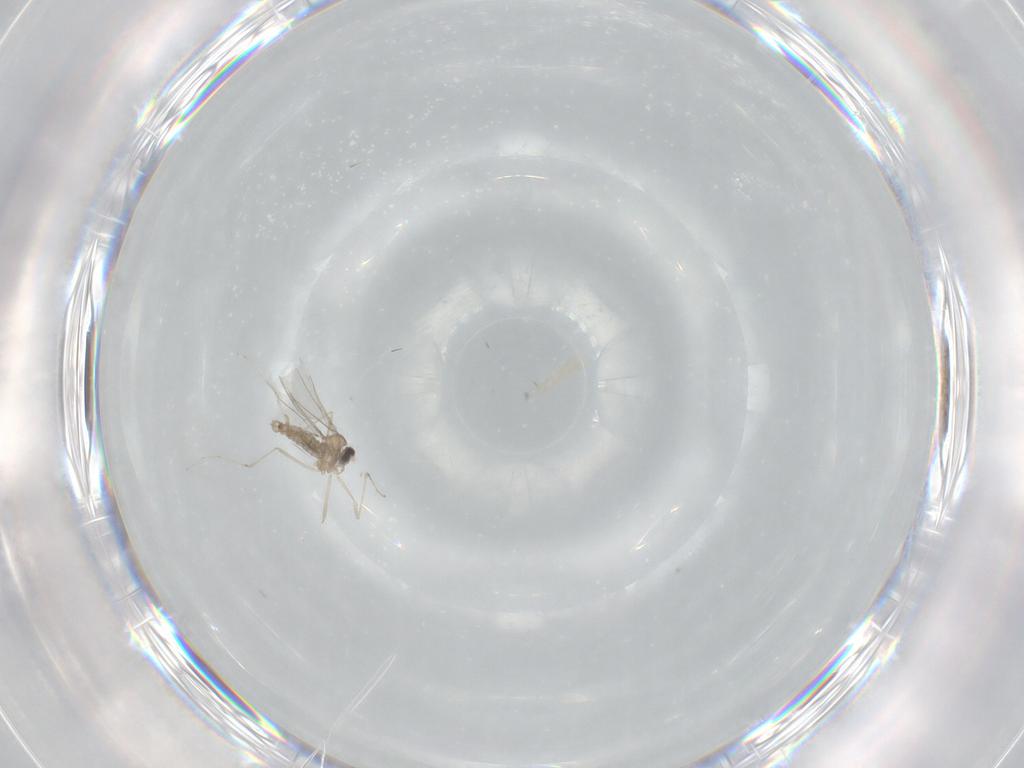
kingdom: Animalia
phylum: Arthropoda
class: Insecta
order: Diptera
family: Cecidomyiidae
